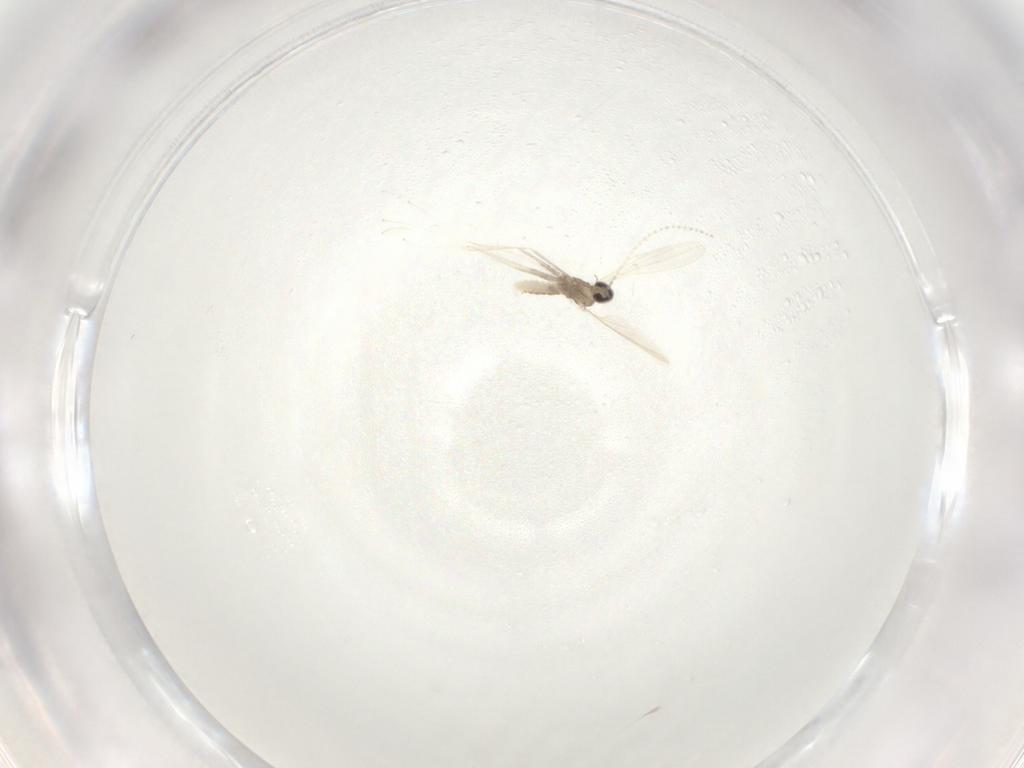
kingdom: Animalia
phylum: Arthropoda
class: Insecta
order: Diptera
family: Cecidomyiidae
